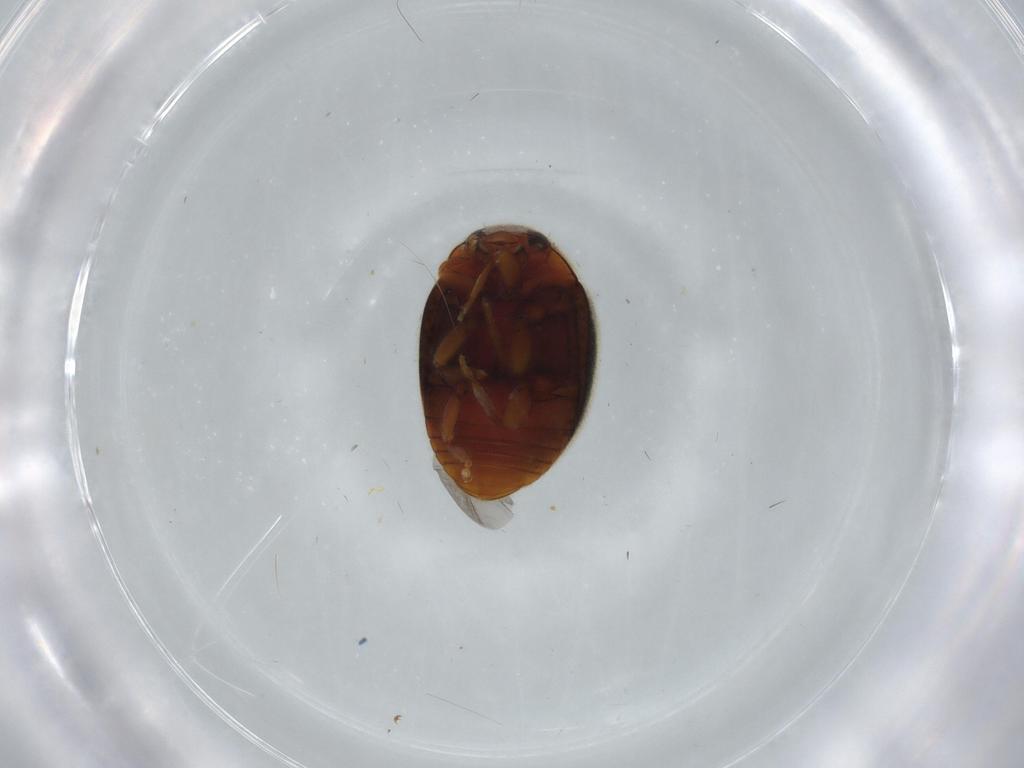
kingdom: Animalia
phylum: Arthropoda
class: Insecta
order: Coleoptera
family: Coccinellidae
